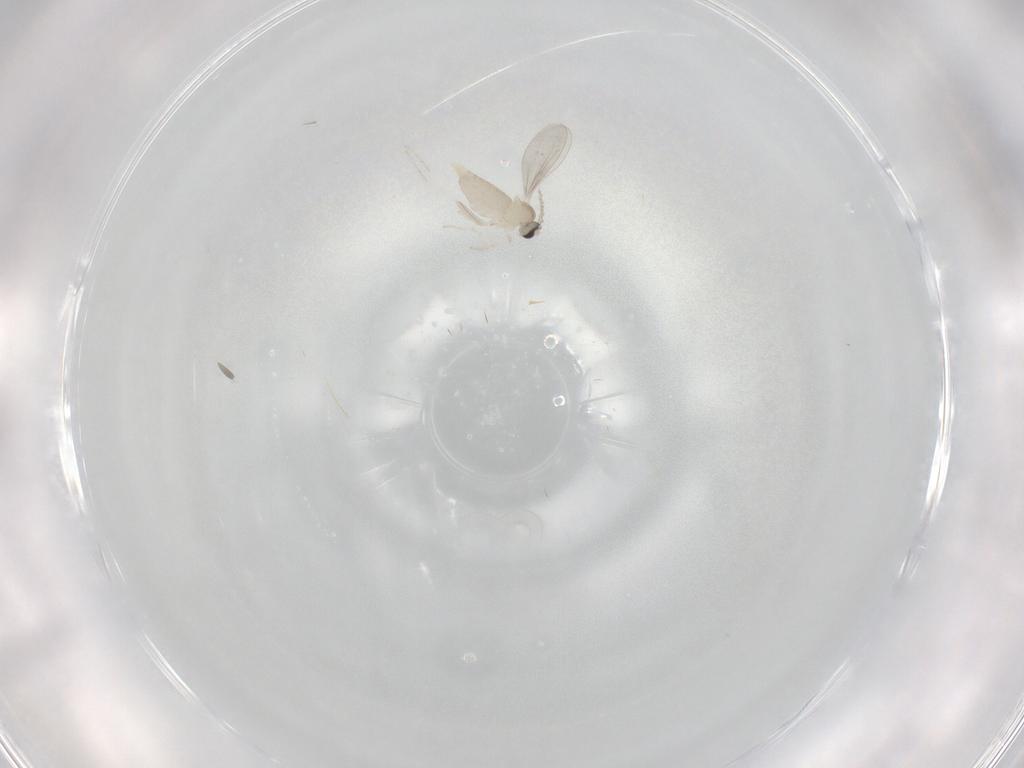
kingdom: Animalia
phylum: Arthropoda
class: Insecta
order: Diptera
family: Cecidomyiidae
